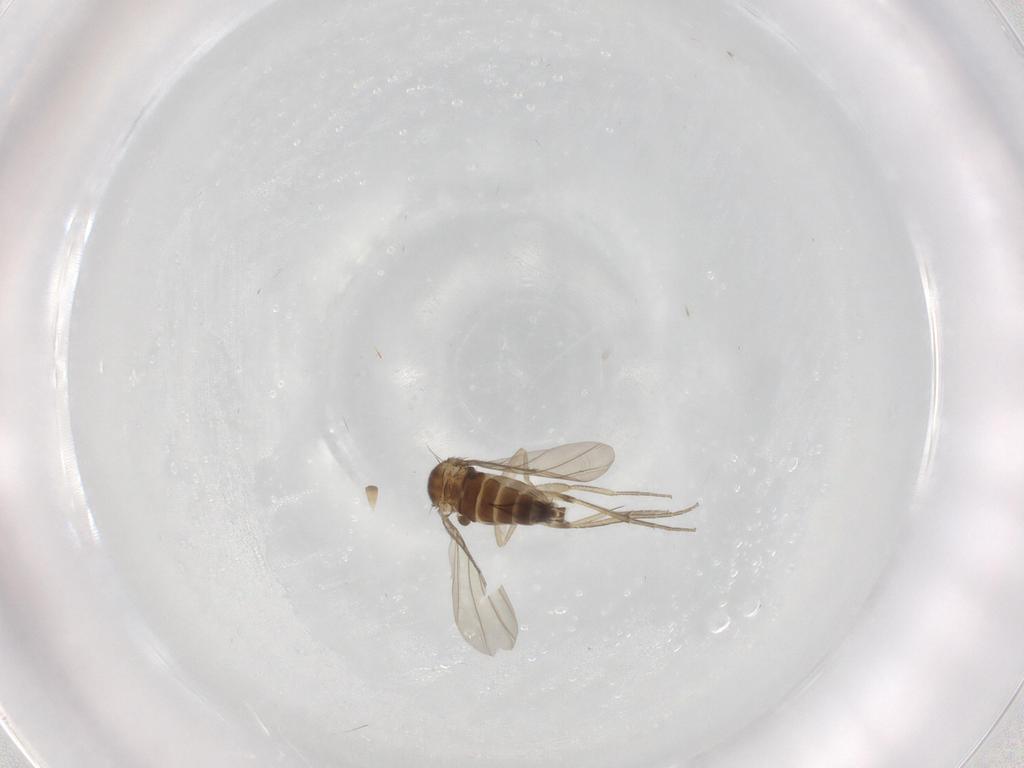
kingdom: Animalia
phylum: Arthropoda
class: Insecta
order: Diptera
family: Phoridae
